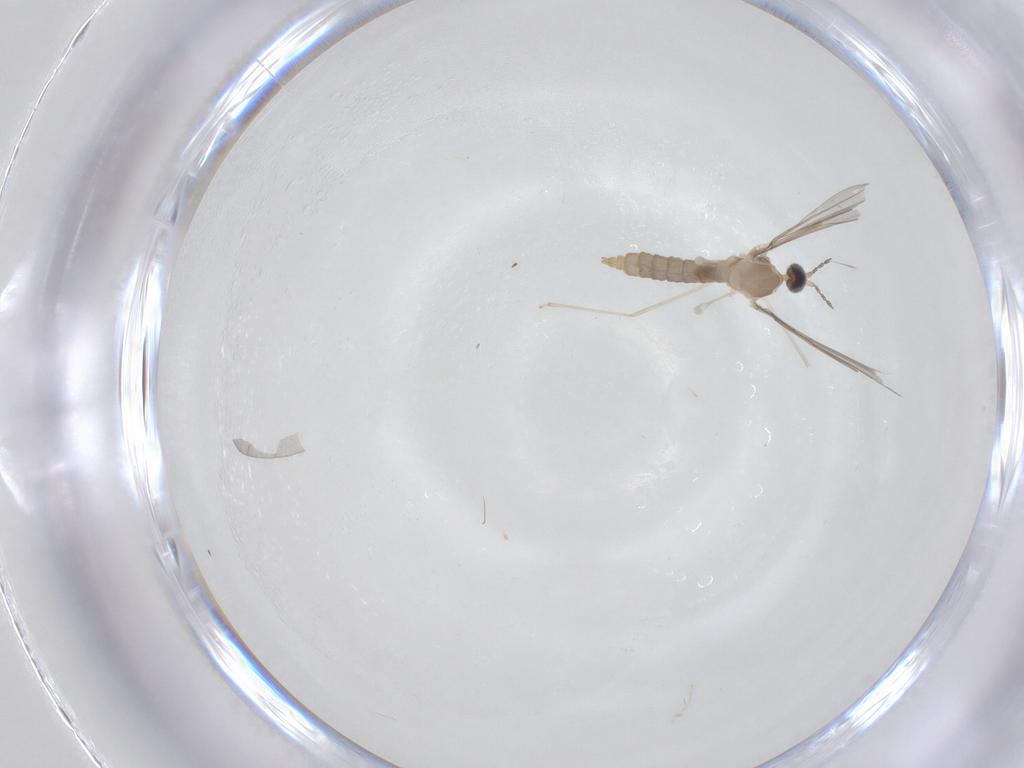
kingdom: Animalia
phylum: Arthropoda
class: Insecta
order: Diptera
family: Cecidomyiidae
